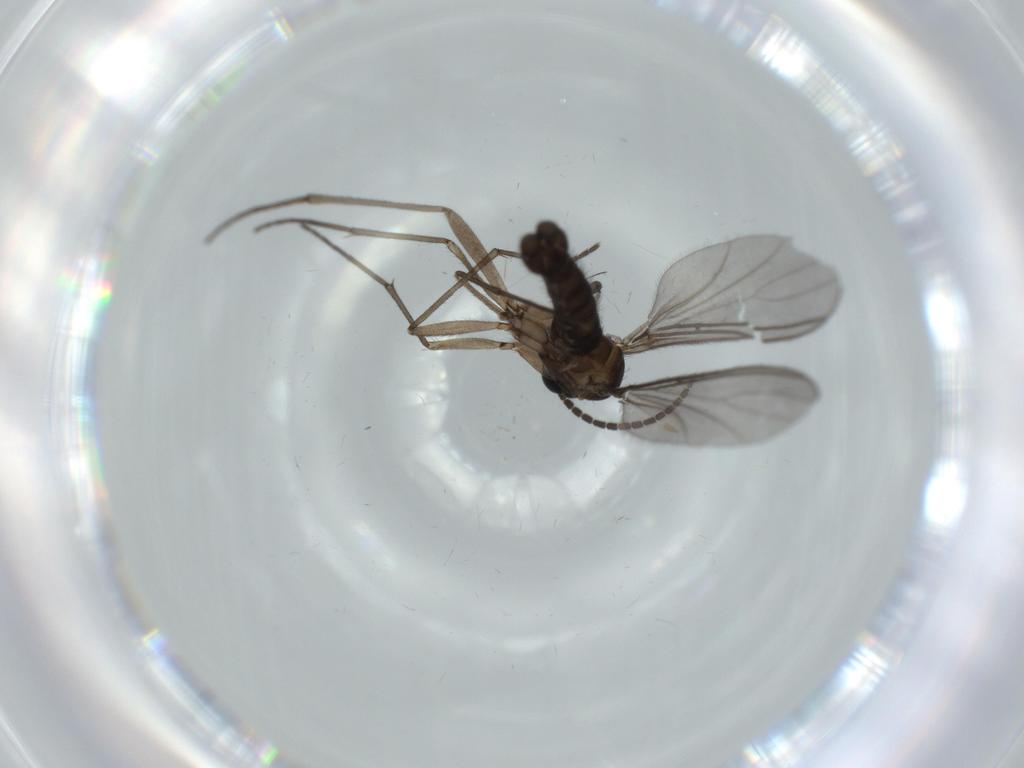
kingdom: Animalia
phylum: Arthropoda
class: Insecta
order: Diptera
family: Sciaridae
